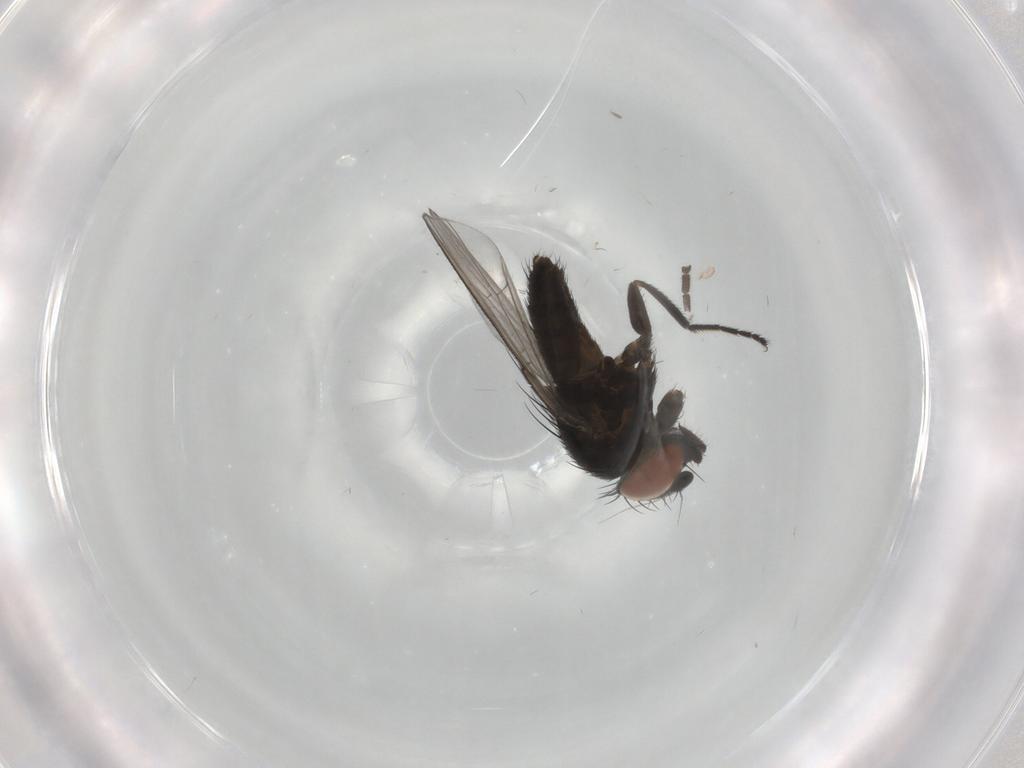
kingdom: Animalia
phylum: Arthropoda
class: Insecta
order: Diptera
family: Milichiidae
